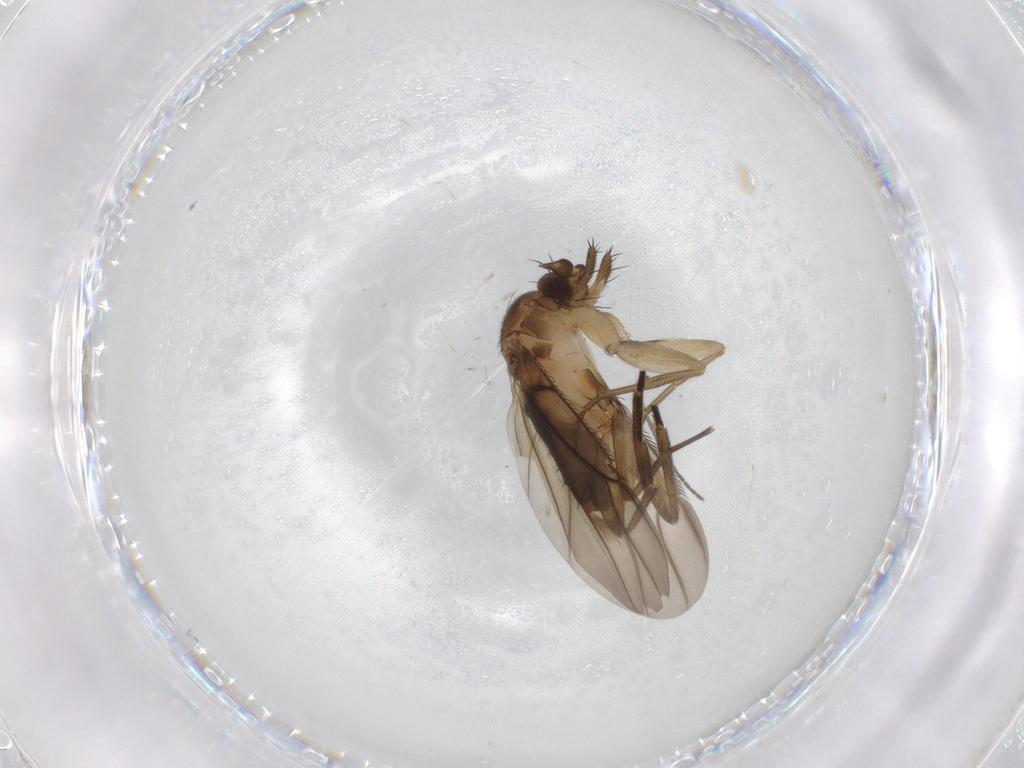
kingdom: Animalia
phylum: Arthropoda
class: Insecta
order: Diptera
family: Phoridae
